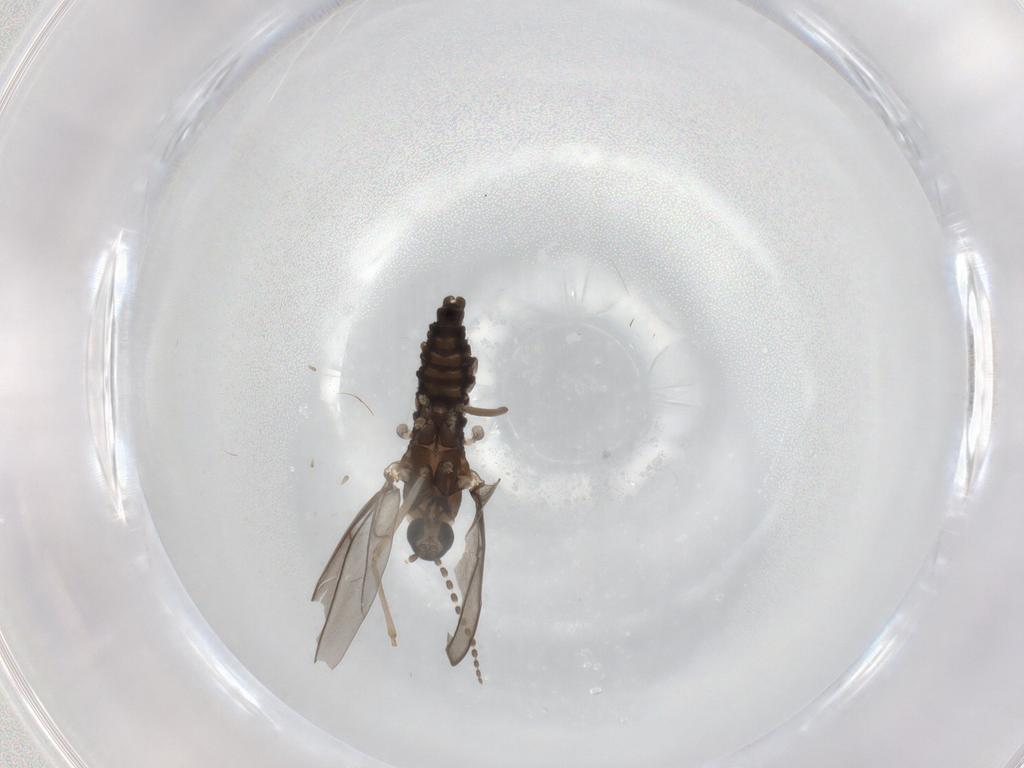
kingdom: Animalia
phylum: Arthropoda
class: Insecta
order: Diptera
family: Cecidomyiidae
